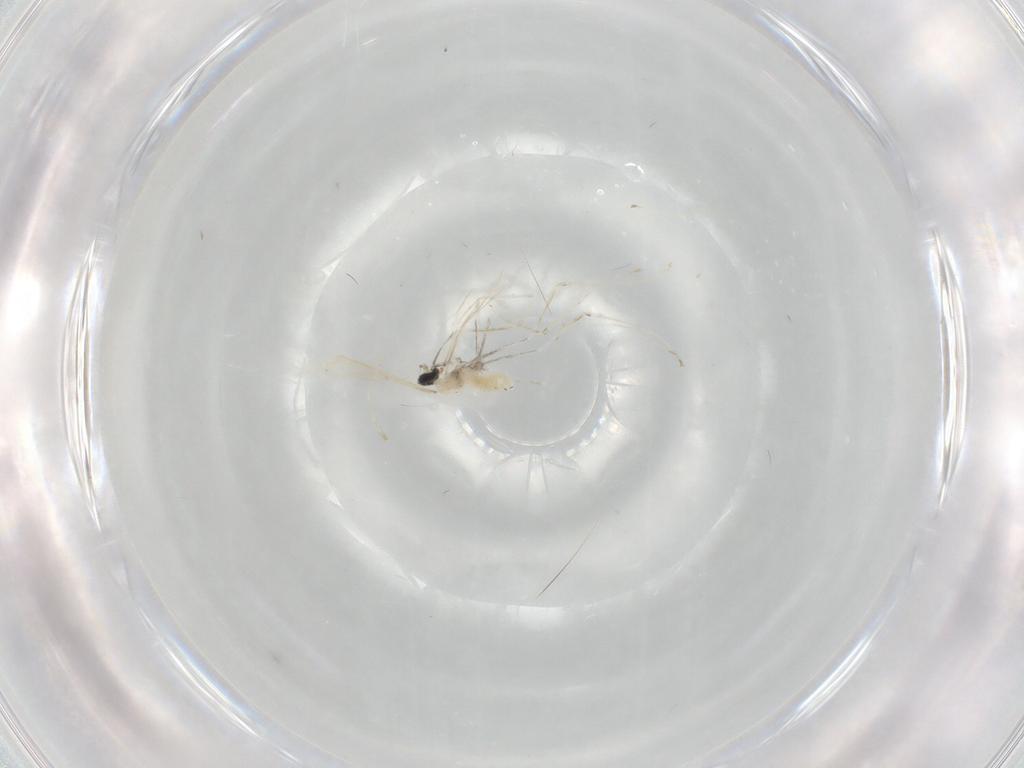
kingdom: Animalia
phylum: Arthropoda
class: Insecta
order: Diptera
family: Cecidomyiidae
